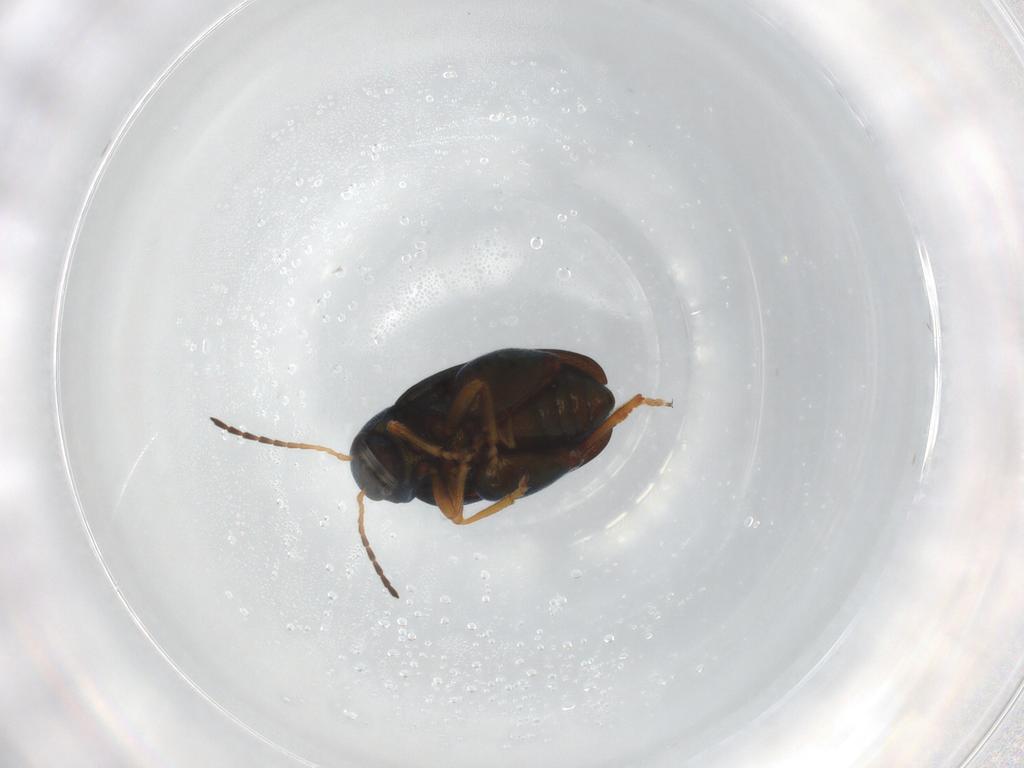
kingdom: Animalia
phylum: Arthropoda
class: Insecta
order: Coleoptera
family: Chrysomelidae
